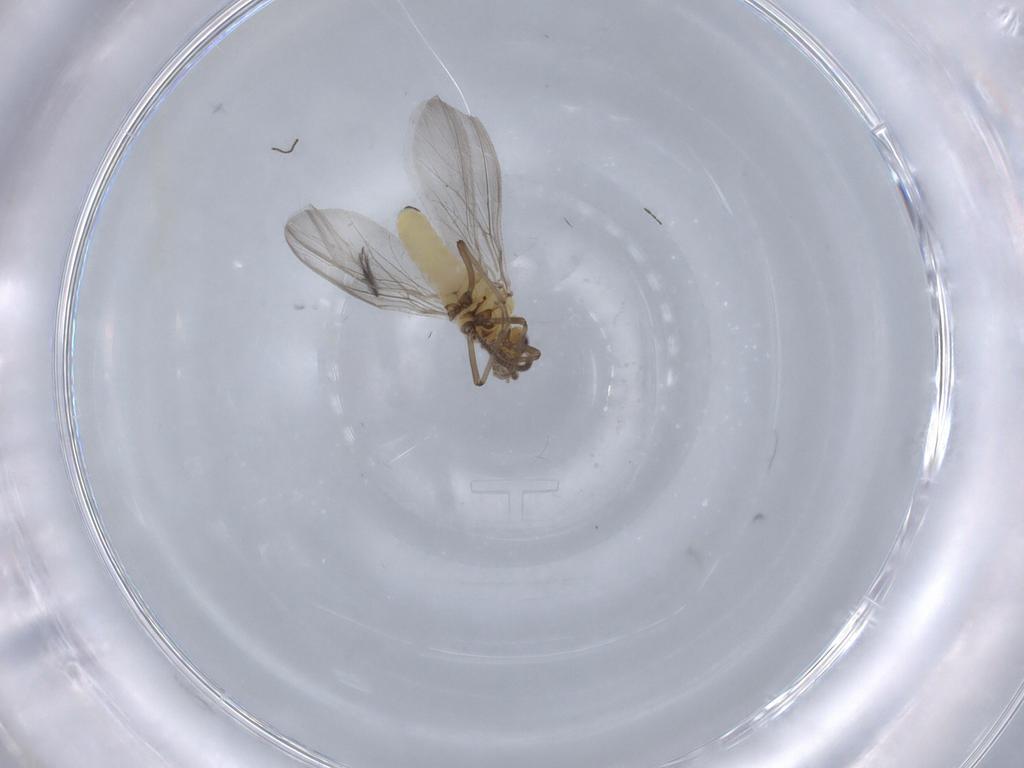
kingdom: Animalia
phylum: Arthropoda
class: Insecta
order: Neuroptera
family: Coniopterygidae
